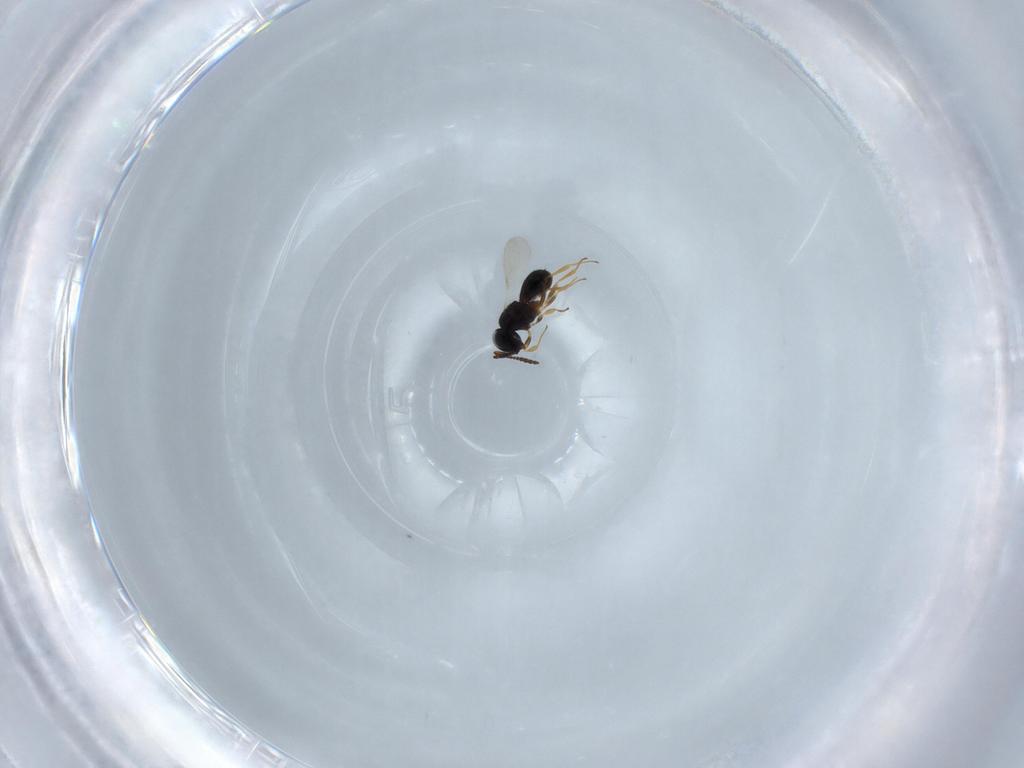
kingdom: Animalia
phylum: Arthropoda
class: Insecta
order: Hymenoptera
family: Scelionidae
